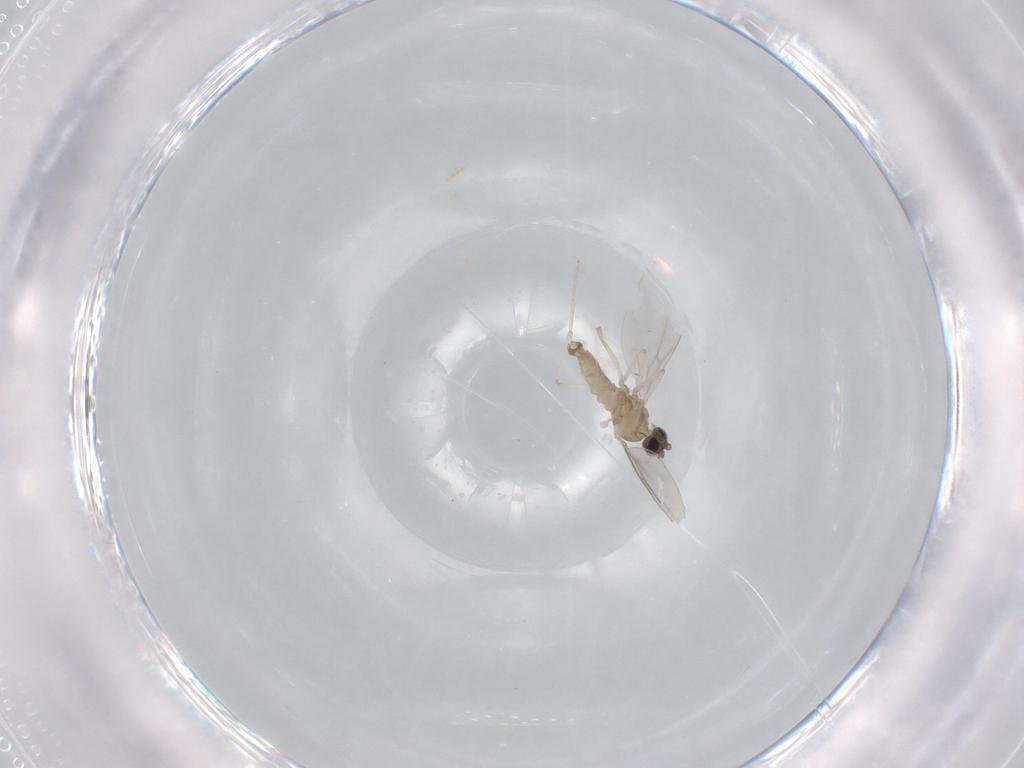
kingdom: Animalia
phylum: Arthropoda
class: Insecta
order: Diptera
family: Cecidomyiidae
